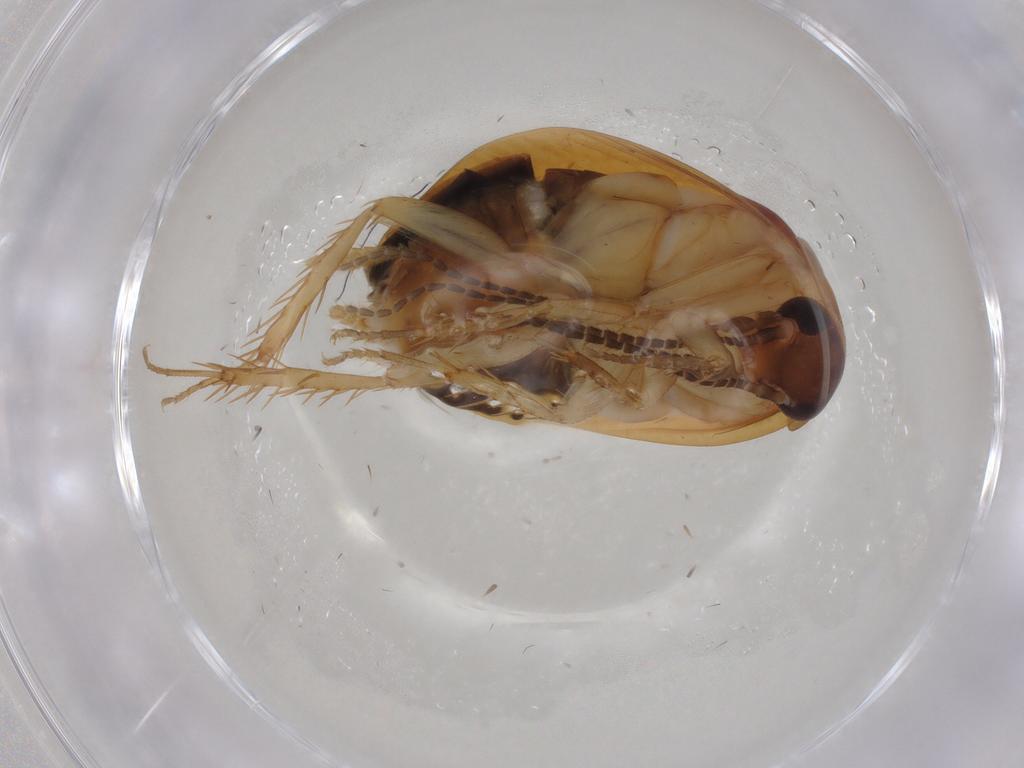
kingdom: Animalia
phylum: Arthropoda
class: Insecta
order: Blattodea
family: Ectobiidae
